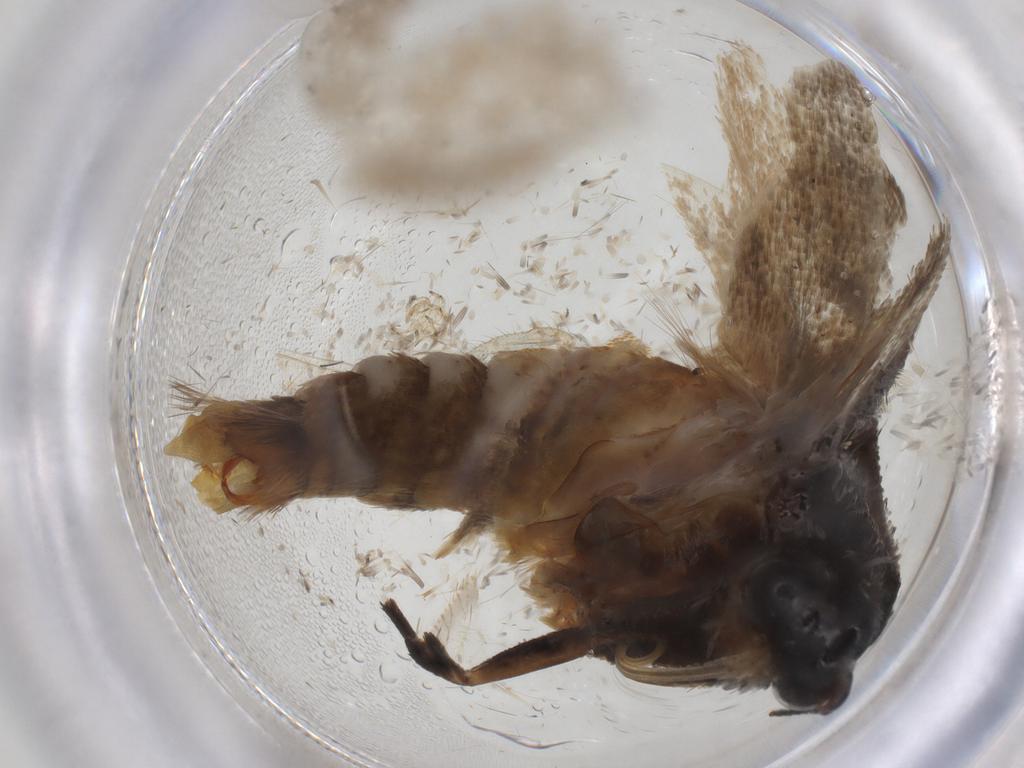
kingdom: Animalia
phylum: Arthropoda
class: Insecta
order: Lepidoptera
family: Oecophoridae
